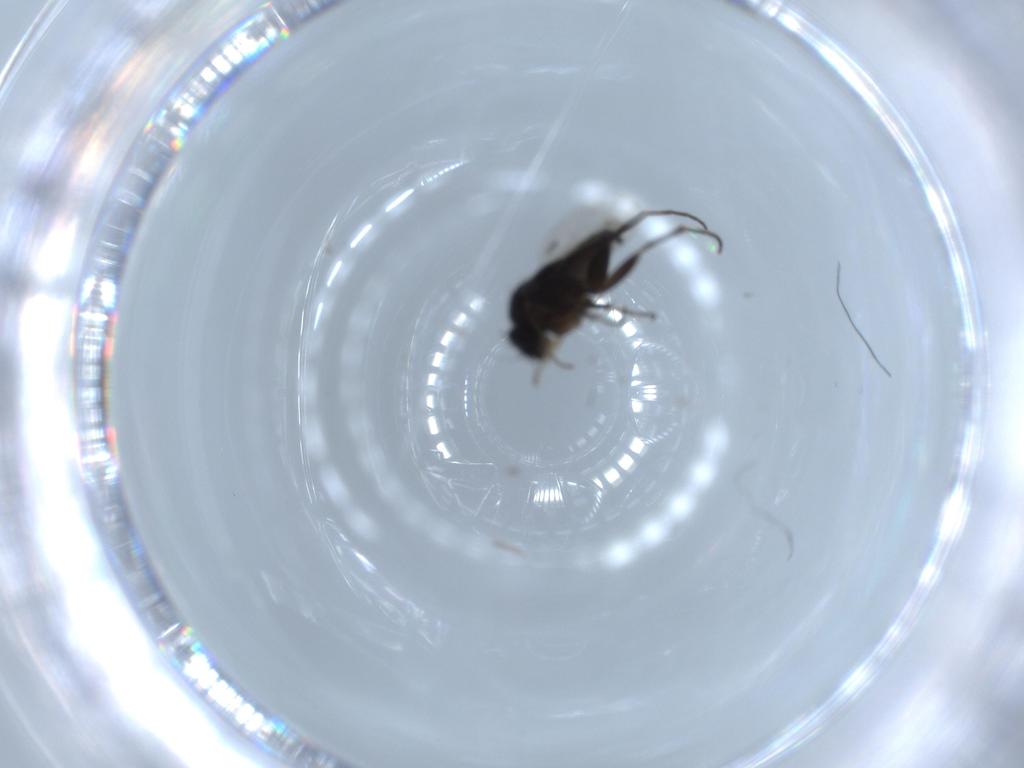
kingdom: Animalia
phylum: Arthropoda
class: Insecta
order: Diptera
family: Phoridae
